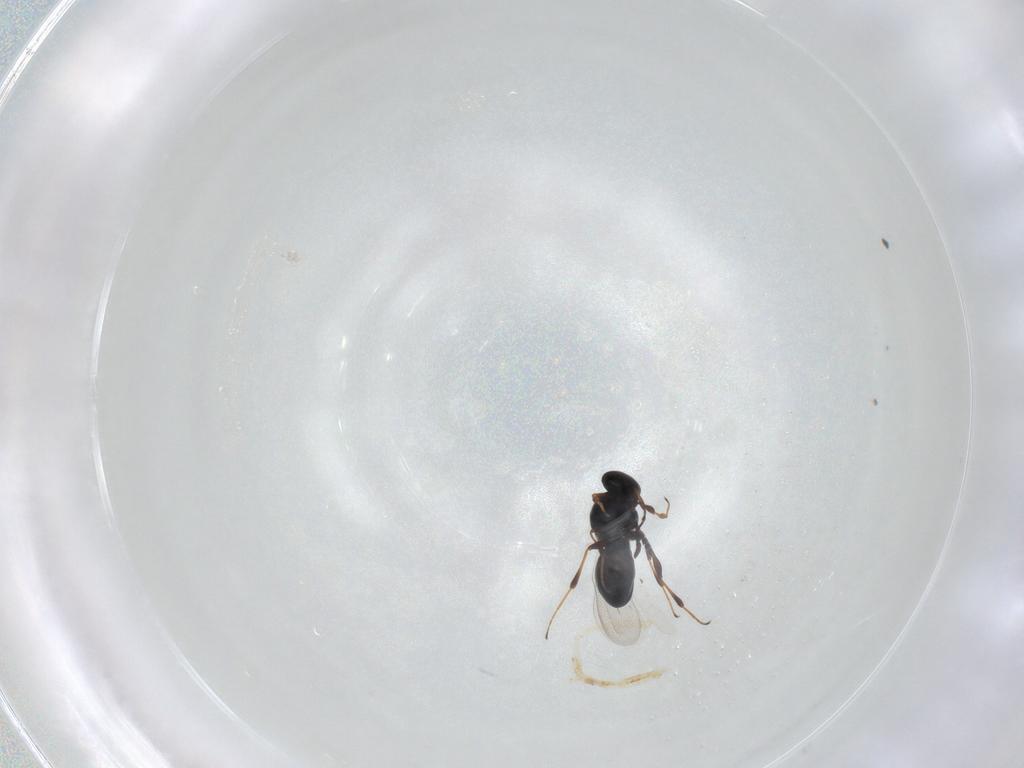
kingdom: Animalia
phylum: Arthropoda
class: Insecta
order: Hymenoptera
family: Platygastridae
